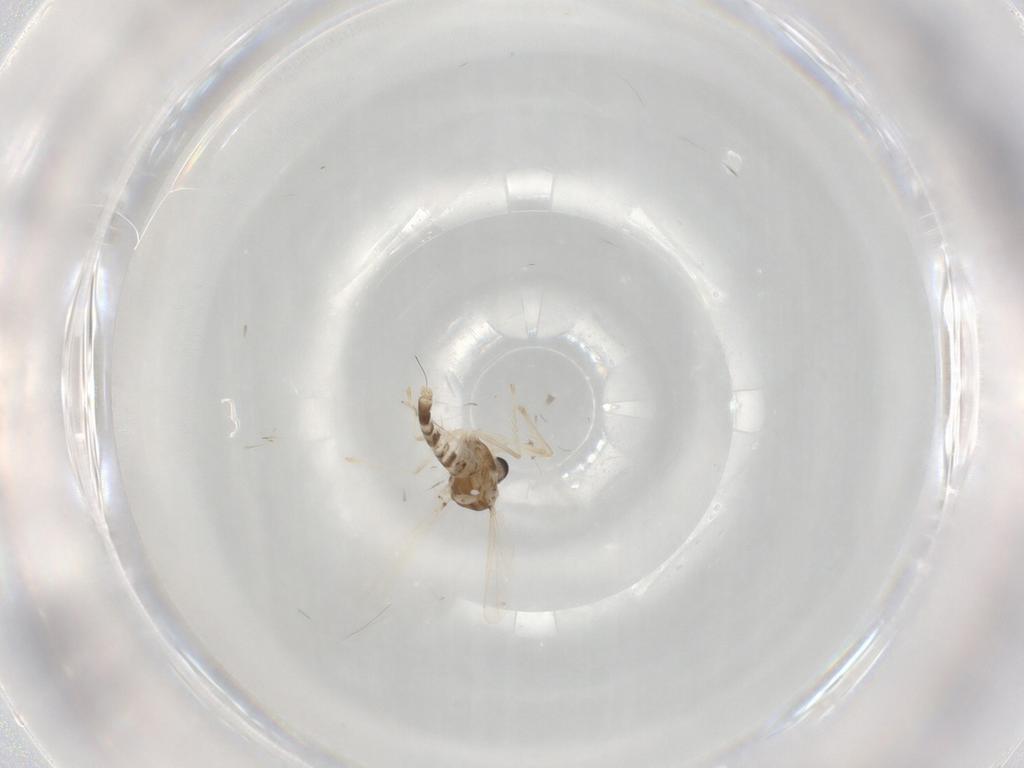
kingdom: Animalia
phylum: Arthropoda
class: Insecta
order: Diptera
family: Chironomidae
